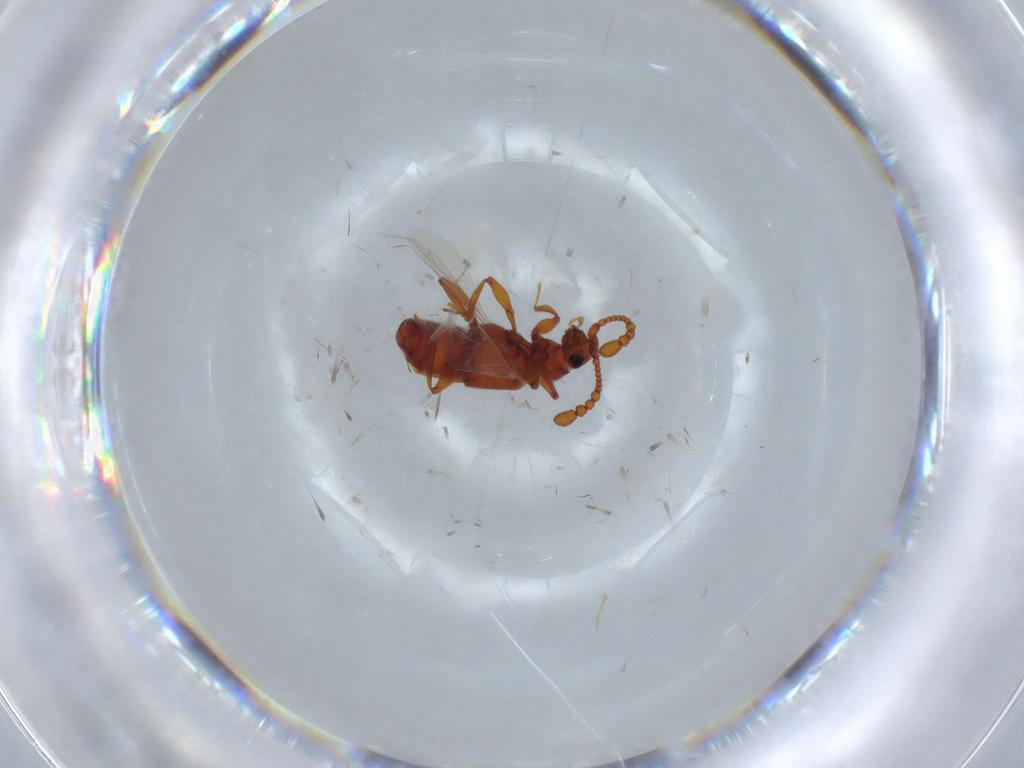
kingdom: Animalia
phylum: Arthropoda
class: Insecta
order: Coleoptera
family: Staphylinidae
